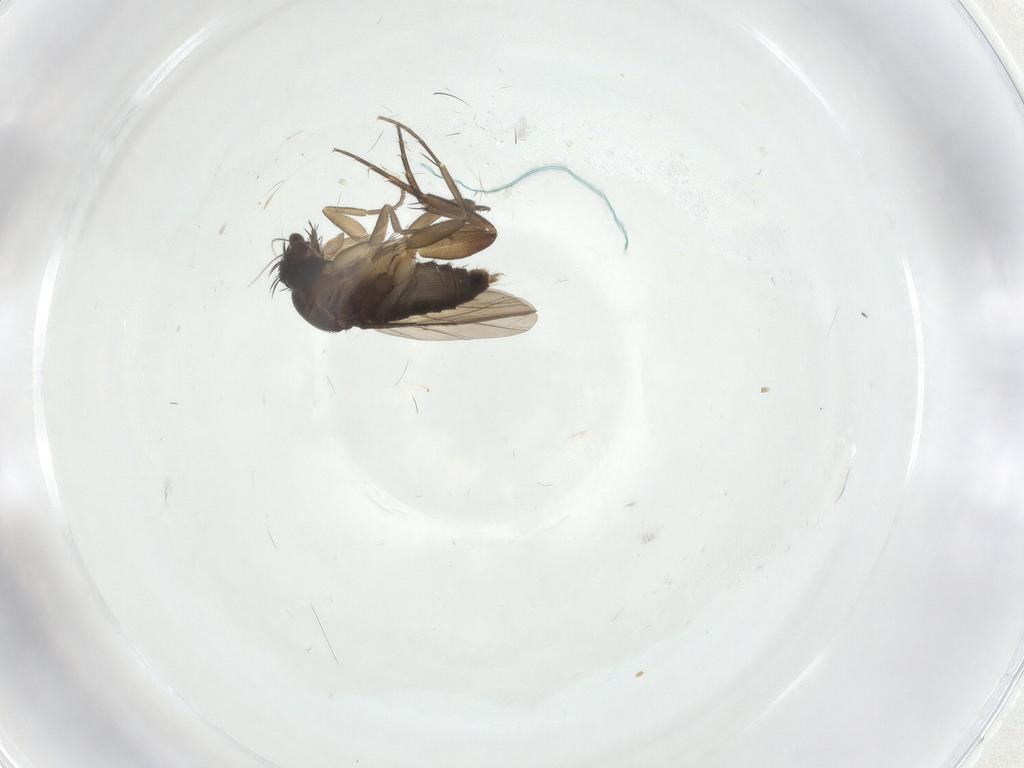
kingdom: Animalia
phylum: Arthropoda
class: Insecta
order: Diptera
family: Phoridae
